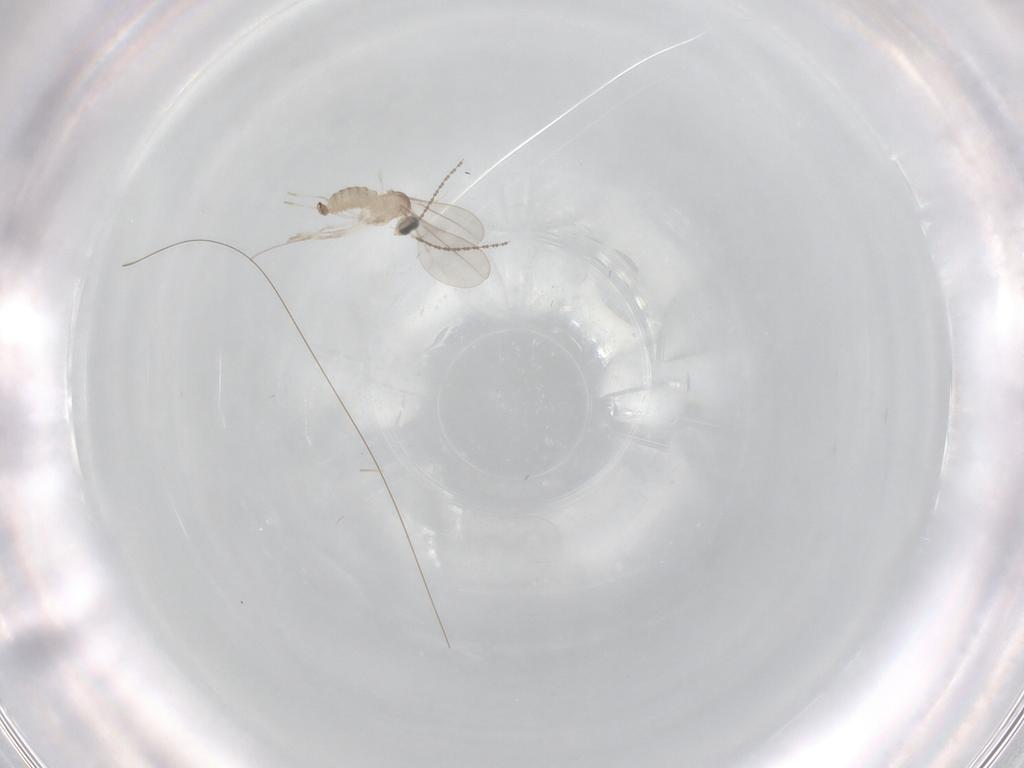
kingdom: Animalia
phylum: Arthropoda
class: Insecta
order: Diptera
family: Cecidomyiidae
